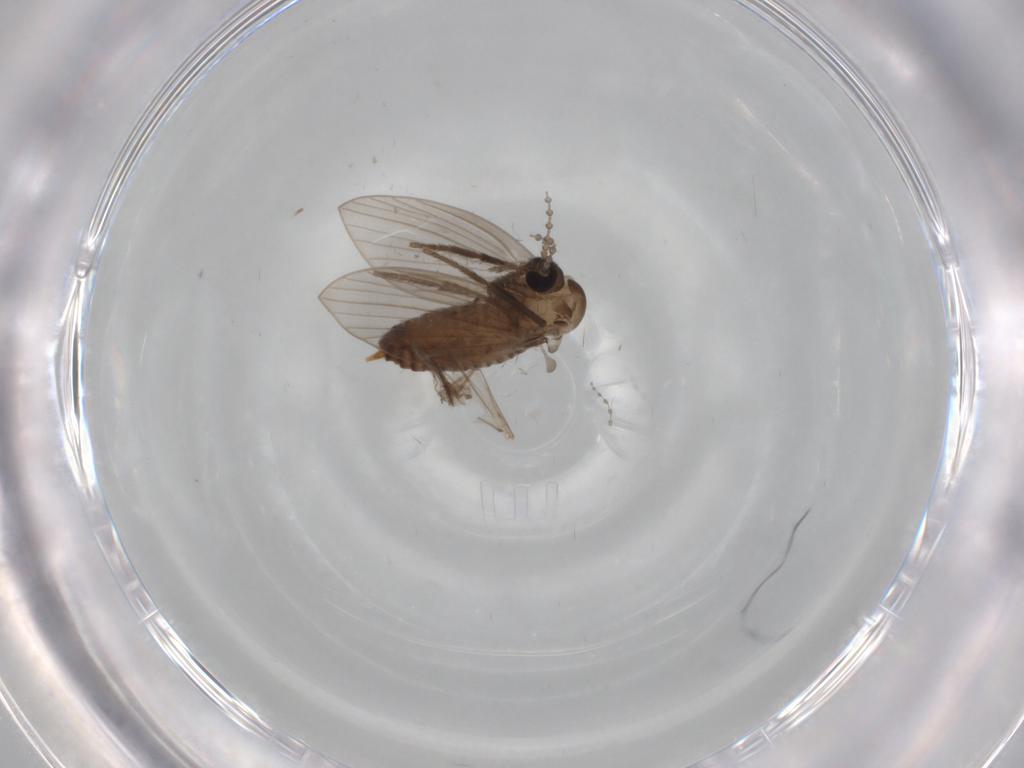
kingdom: Animalia
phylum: Arthropoda
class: Insecta
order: Diptera
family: Psychodidae
